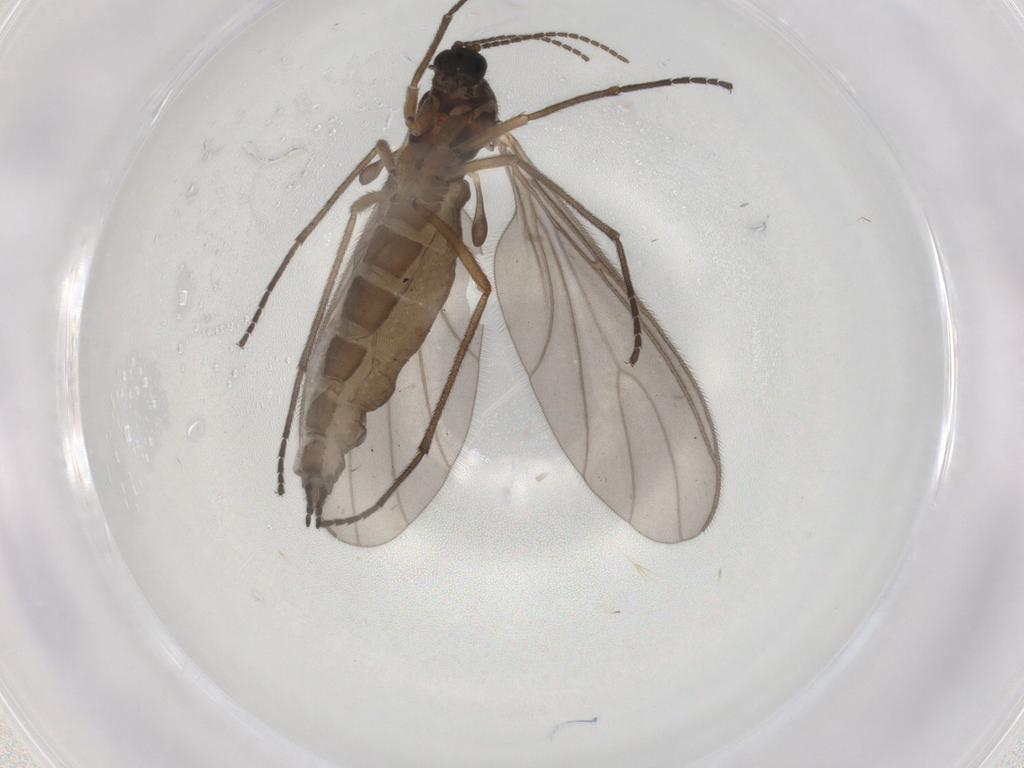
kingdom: Animalia
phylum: Arthropoda
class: Insecta
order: Diptera
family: Sciaridae
